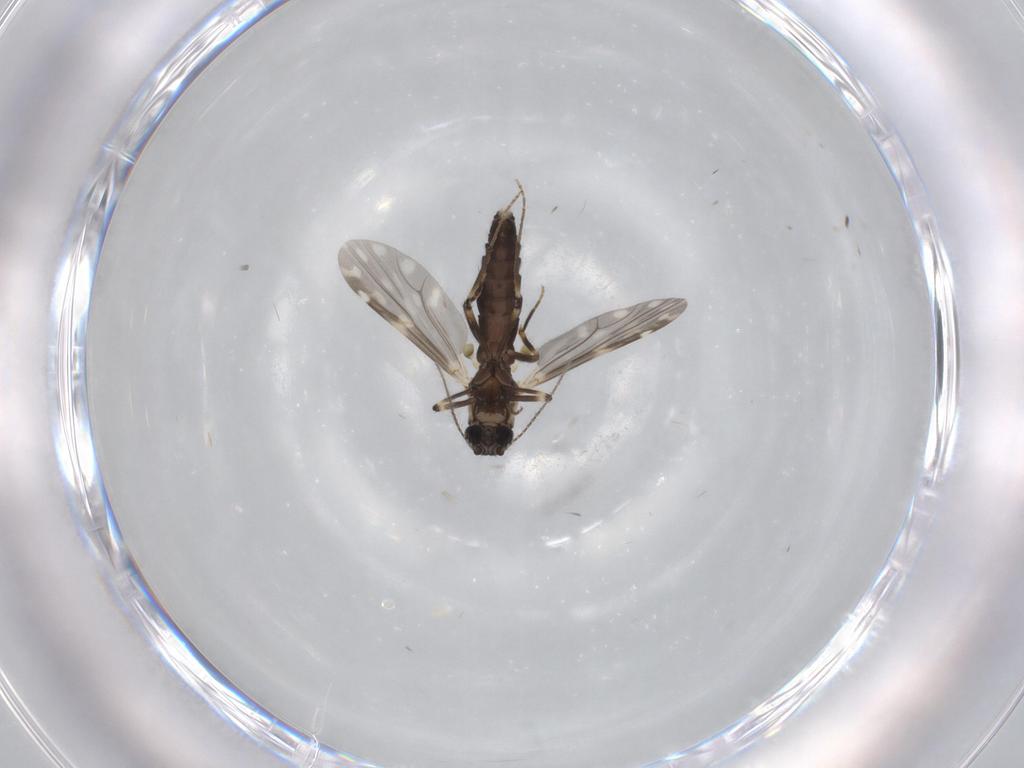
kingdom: Animalia
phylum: Arthropoda
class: Insecta
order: Diptera
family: Ceratopogonidae
